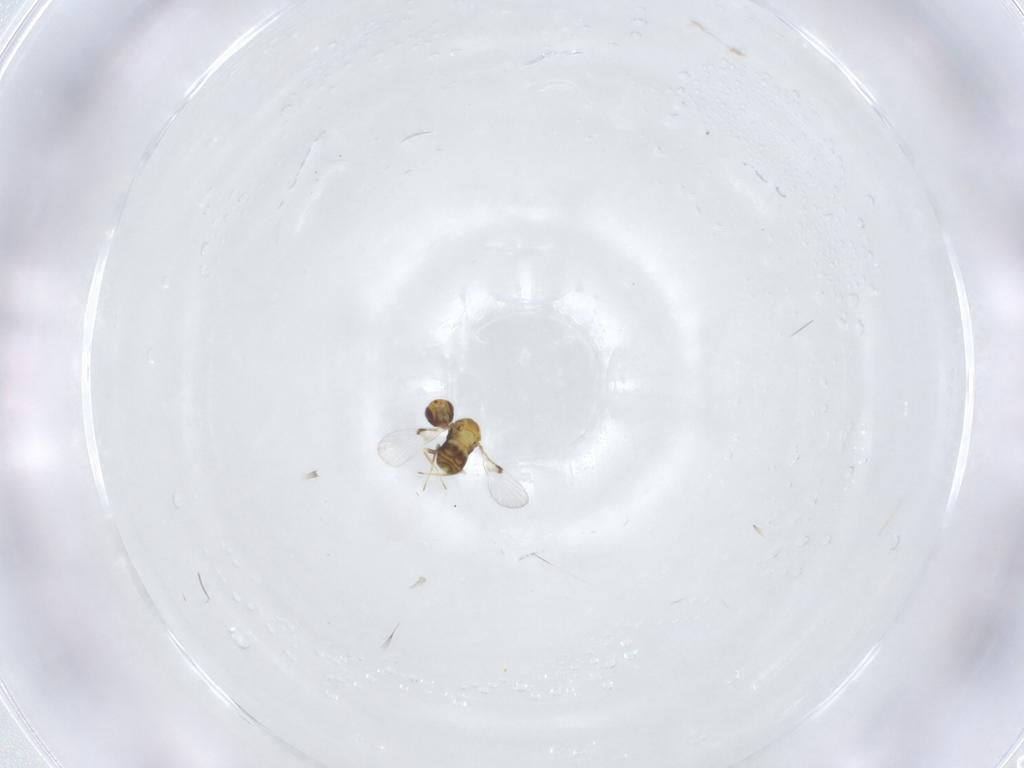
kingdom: Animalia
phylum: Arthropoda
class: Insecta
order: Hymenoptera
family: Trichogrammatidae
